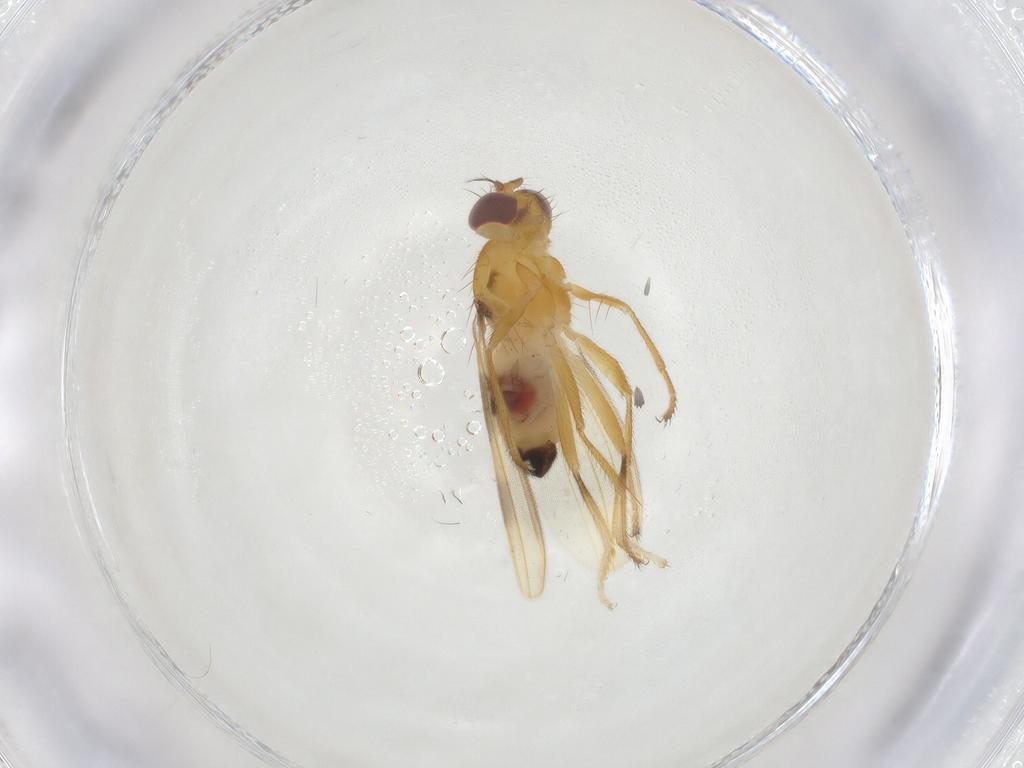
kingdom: Animalia
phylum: Arthropoda
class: Insecta
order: Diptera
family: Periscelididae
